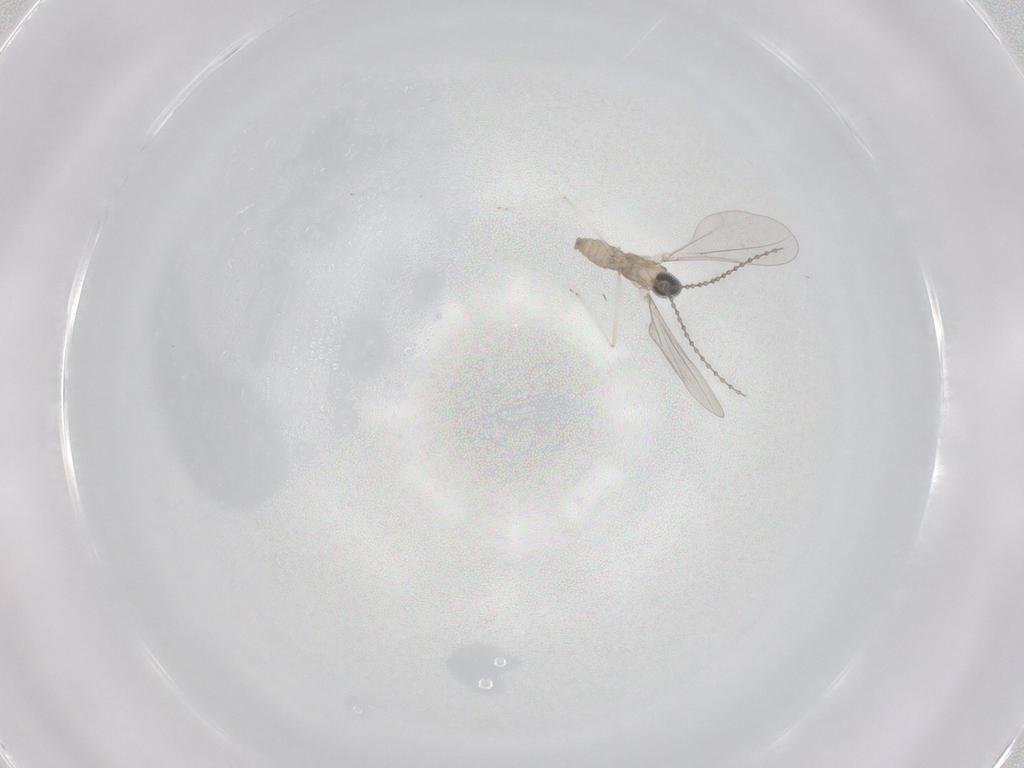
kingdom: Animalia
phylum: Arthropoda
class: Insecta
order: Diptera
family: Cecidomyiidae
